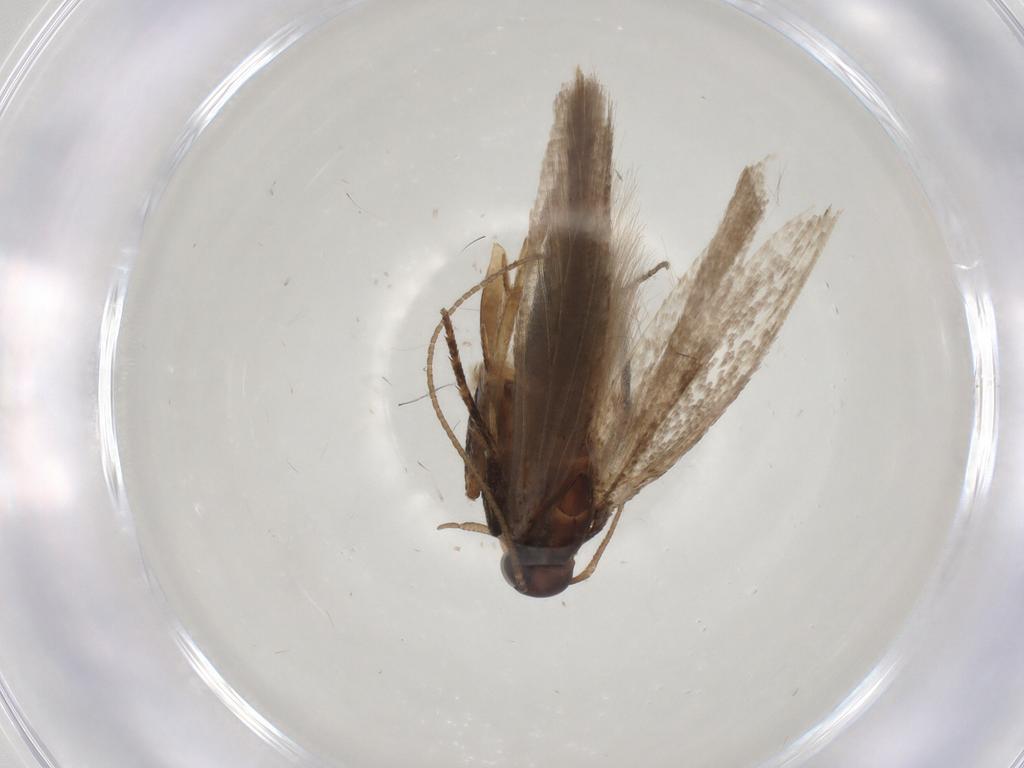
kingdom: Animalia
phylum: Arthropoda
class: Insecta
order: Lepidoptera
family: Gelechiidae
